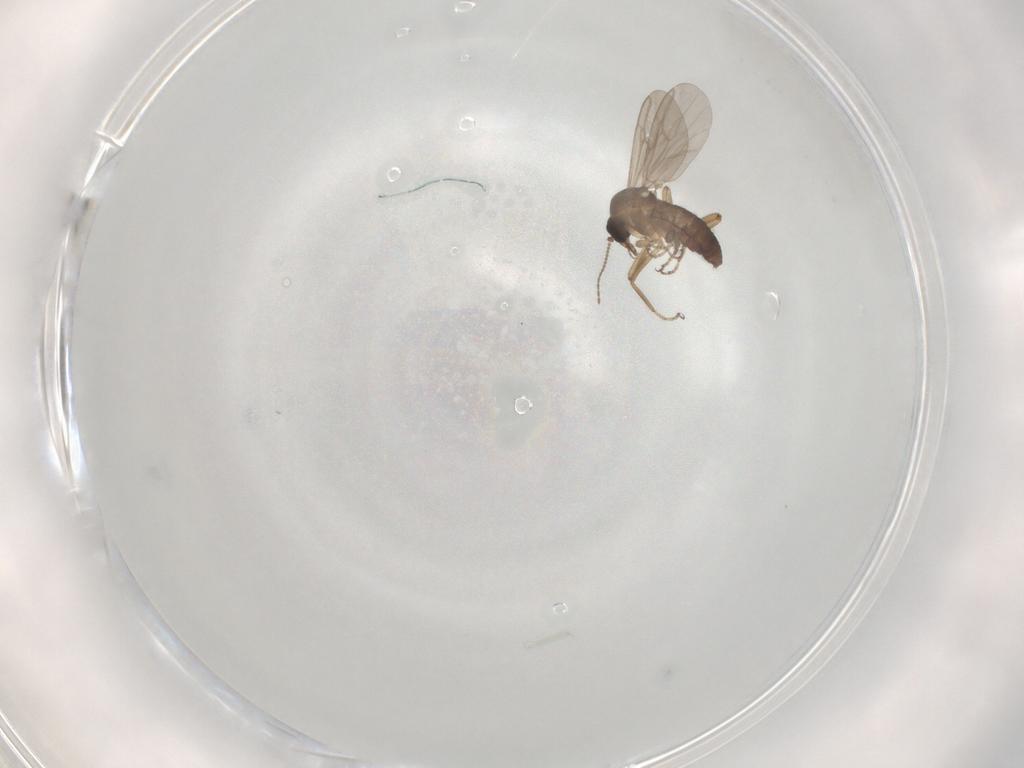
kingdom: Animalia
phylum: Arthropoda
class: Insecta
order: Diptera
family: Ceratopogonidae
